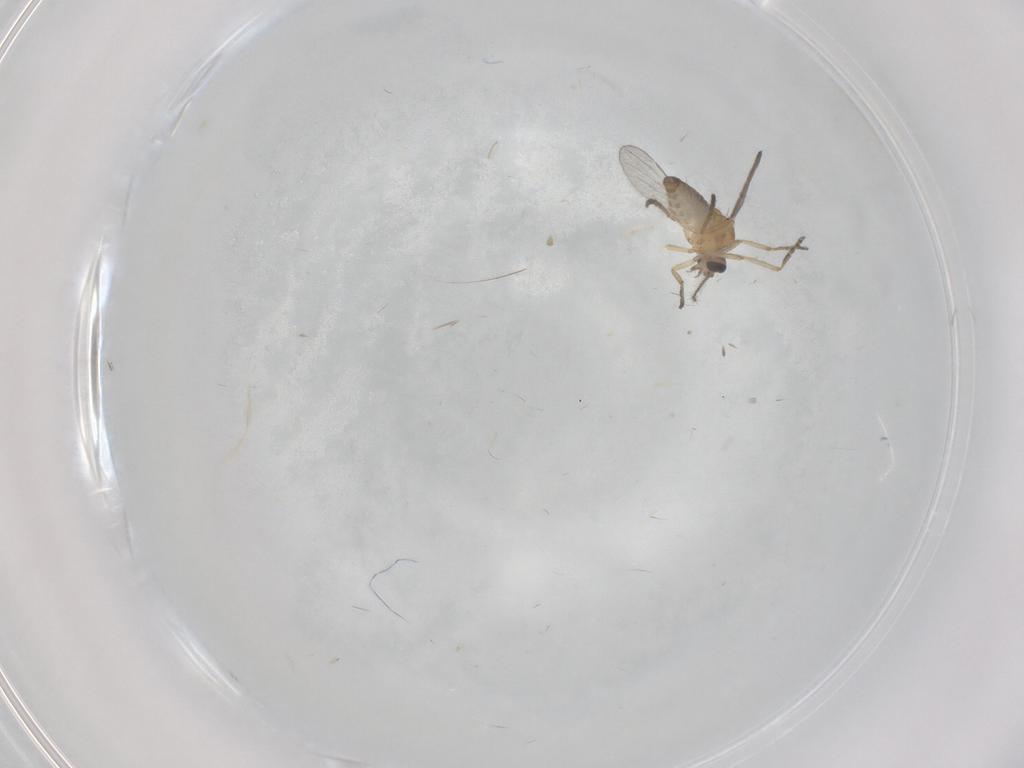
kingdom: Animalia
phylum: Arthropoda
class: Insecta
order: Diptera
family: Ceratopogonidae
